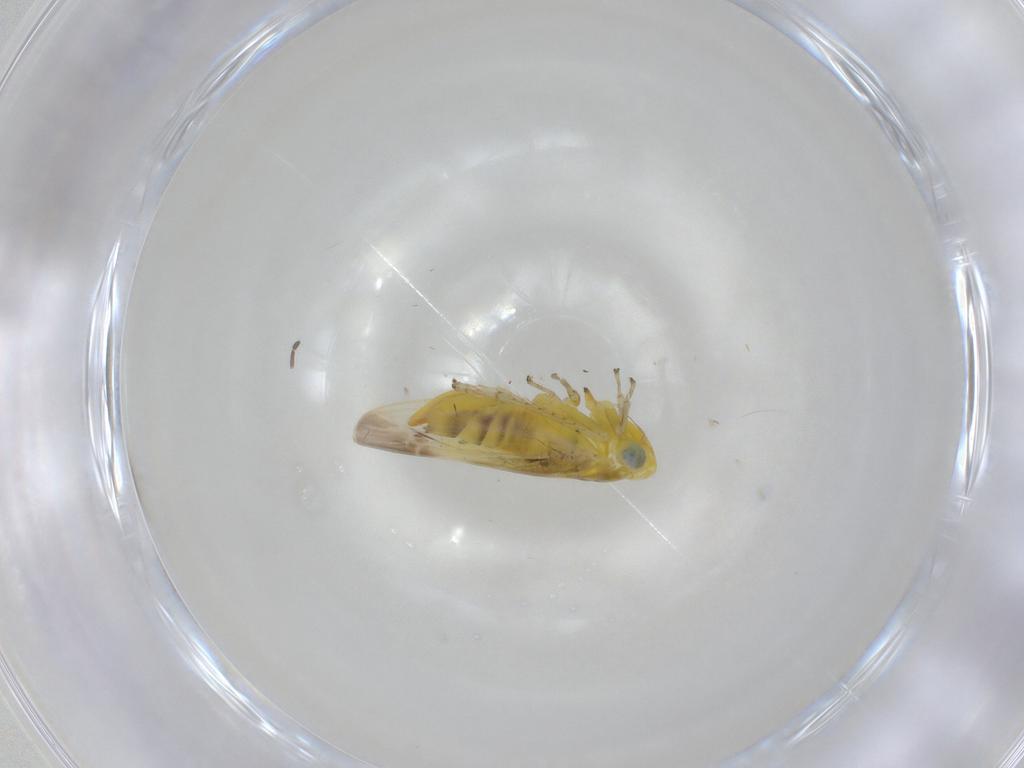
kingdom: Animalia
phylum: Arthropoda
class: Insecta
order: Hemiptera
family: Cicadellidae
